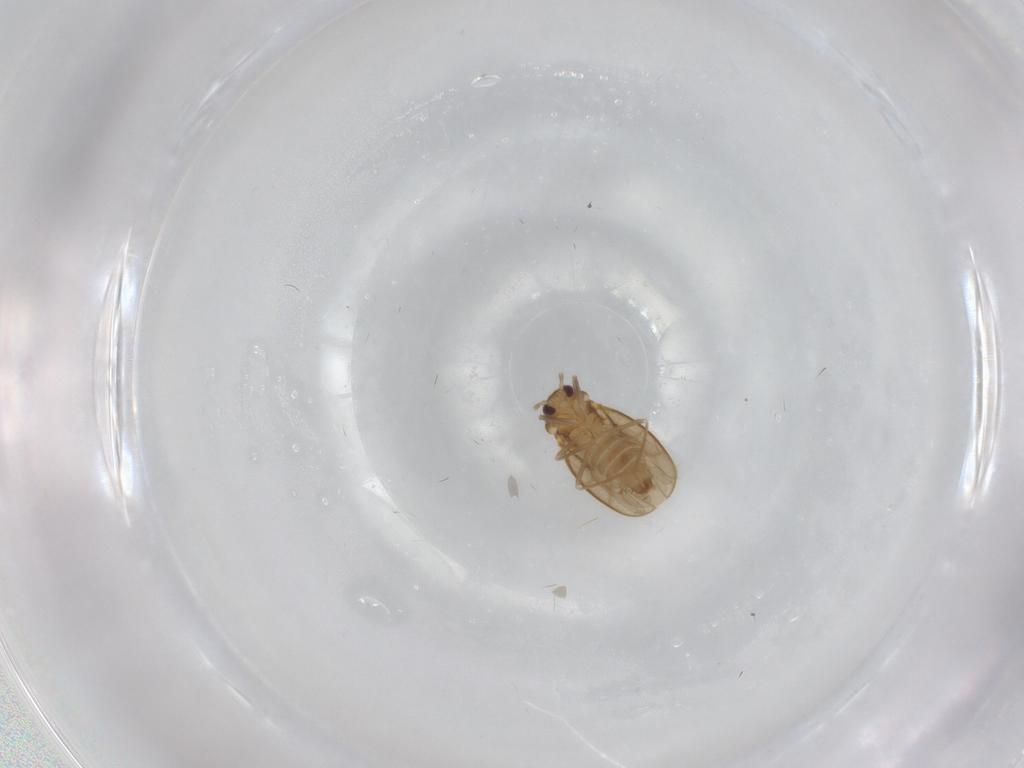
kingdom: Animalia
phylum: Arthropoda
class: Insecta
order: Hemiptera
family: Schizopteridae
